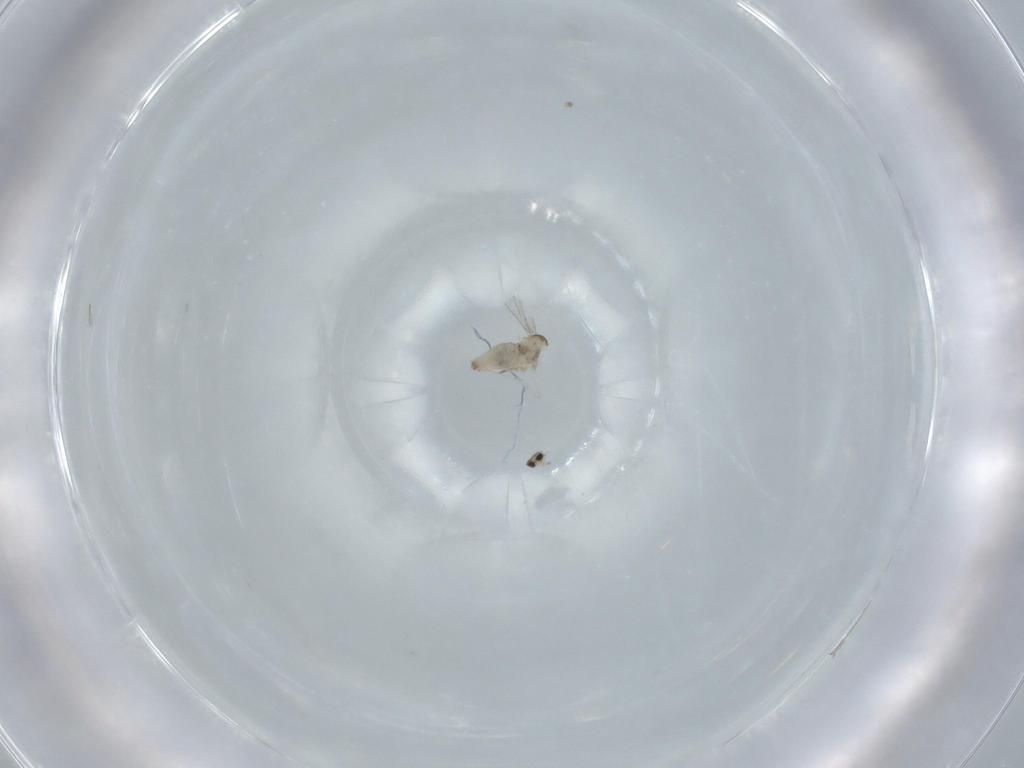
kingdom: Animalia
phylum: Arthropoda
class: Insecta
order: Diptera
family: Cecidomyiidae
